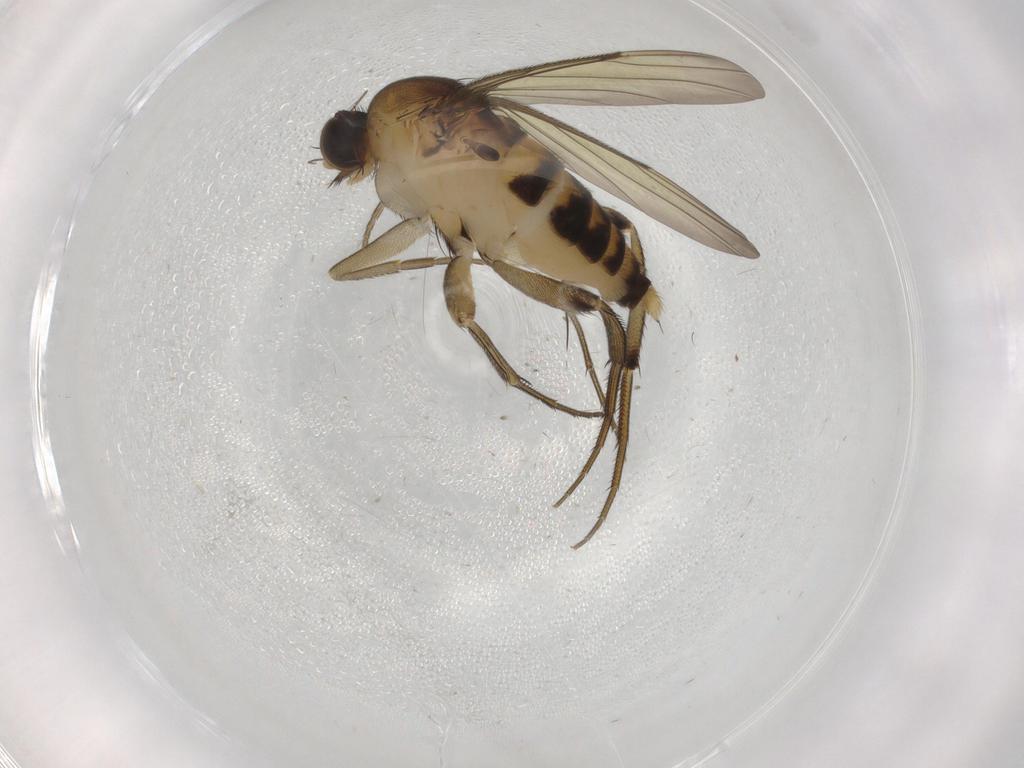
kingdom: Animalia
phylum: Arthropoda
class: Insecta
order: Diptera
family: Phoridae
